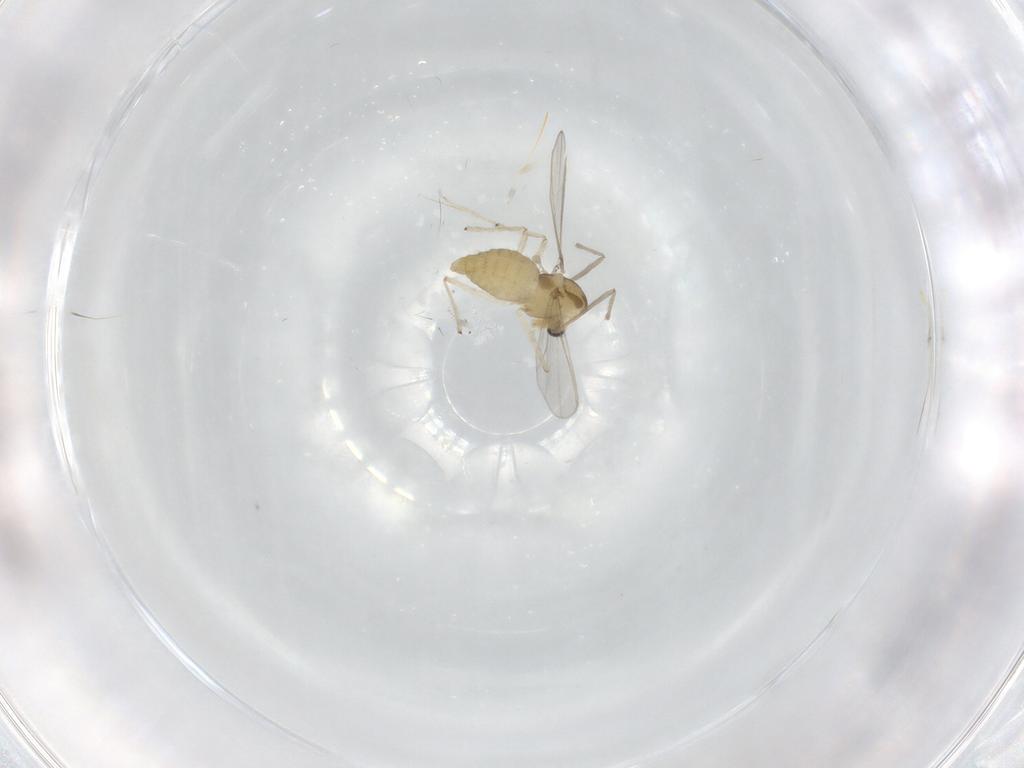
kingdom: Animalia
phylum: Arthropoda
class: Insecta
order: Diptera
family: Chironomidae
